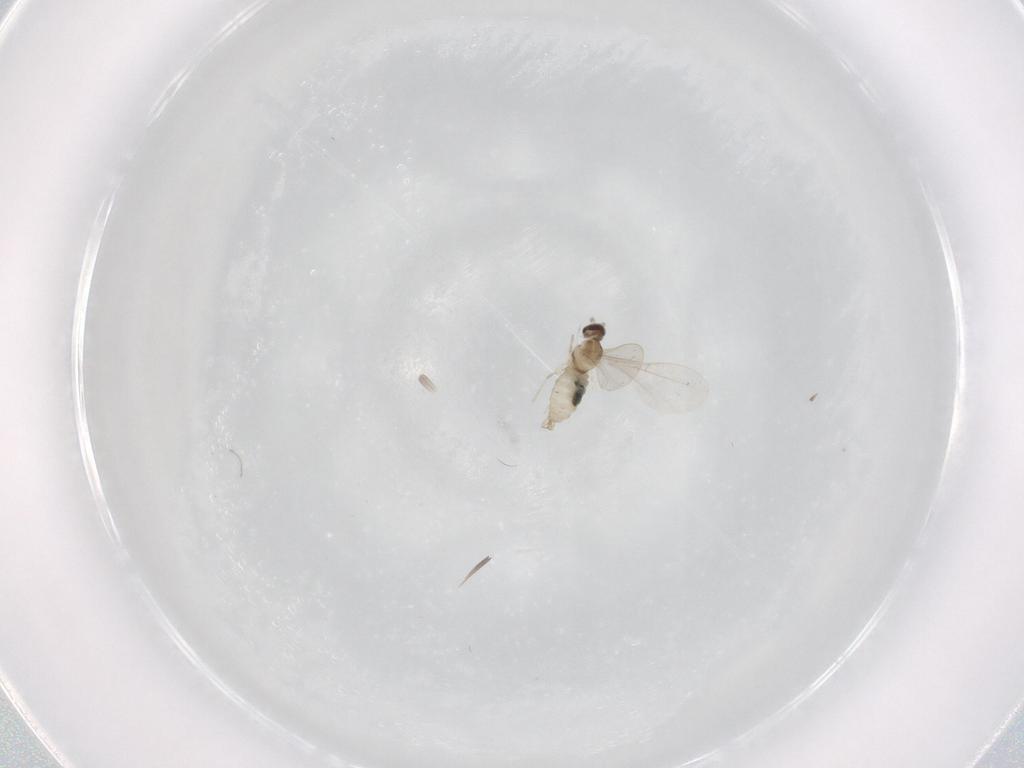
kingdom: Animalia
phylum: Arthropoda
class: Insecta
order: Diptera
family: Cecidomyiidae
